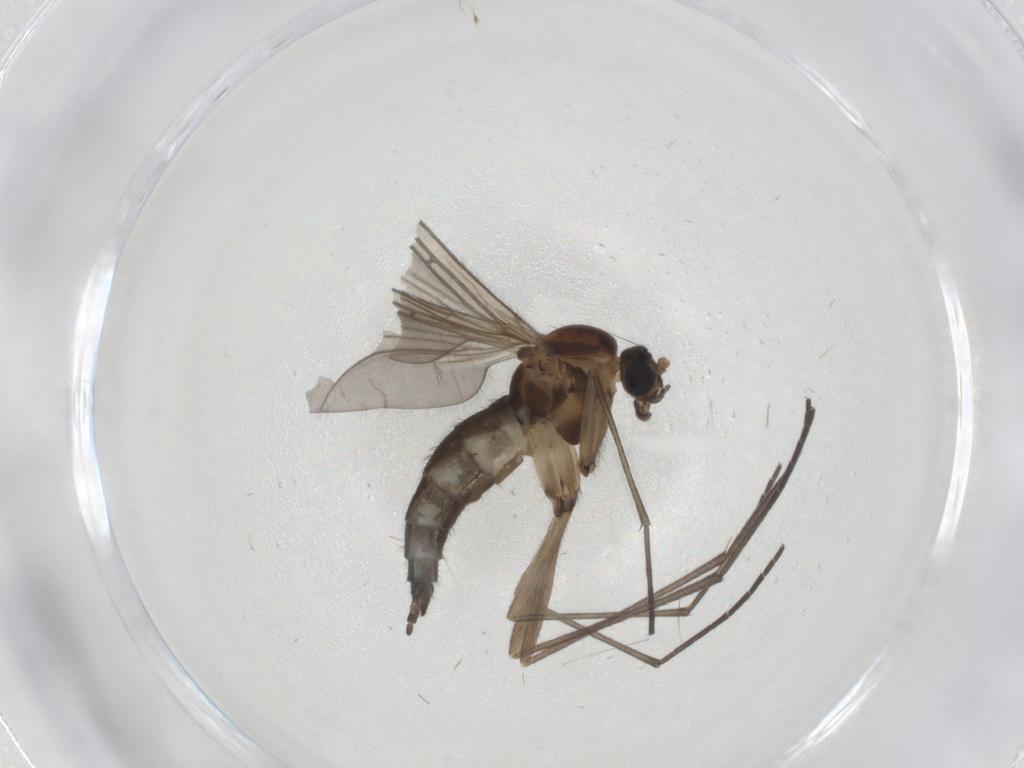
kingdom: Animalia
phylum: Arthropoda
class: Insecta
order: Diptera
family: Sciaridae
